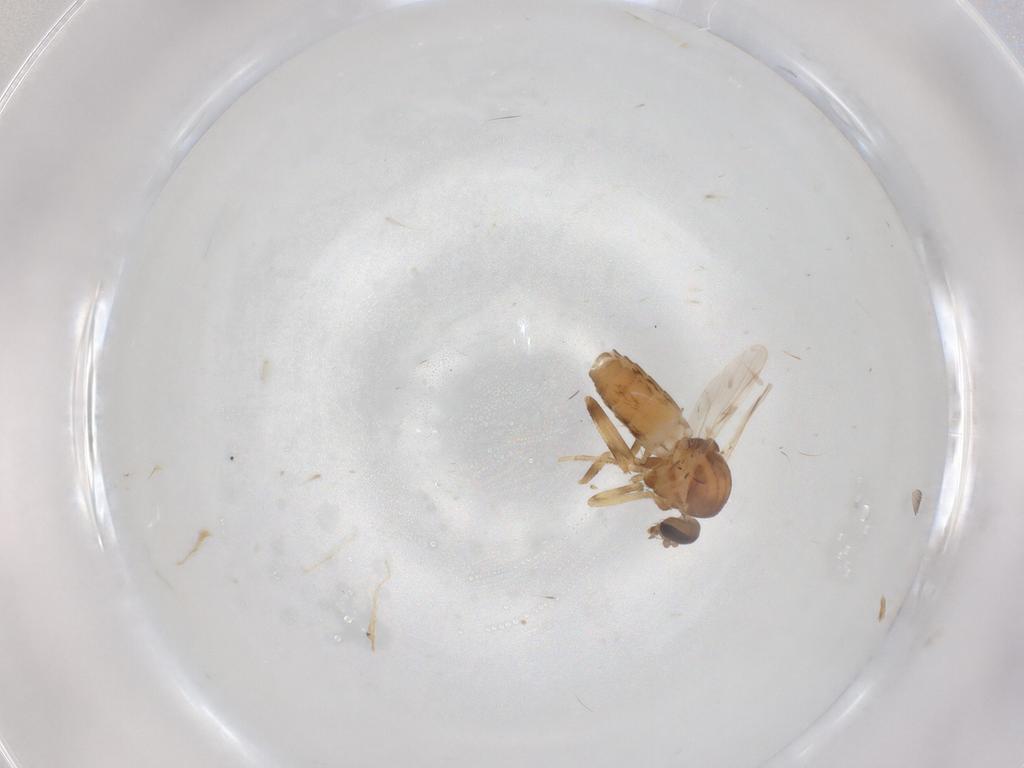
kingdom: Animalia
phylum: Arthropoda
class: Insecta
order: Diptera
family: Ceratopogonidae
